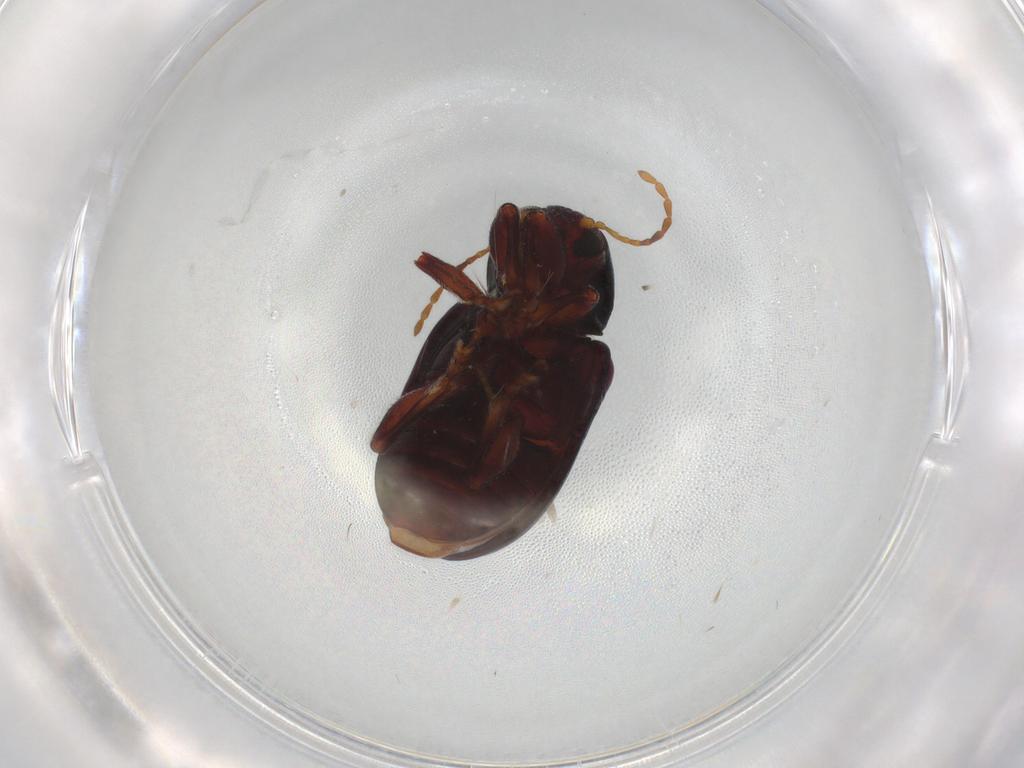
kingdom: Animalia
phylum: Arthropoda
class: Insecta
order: Coleoptera
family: Chrysomelidae
